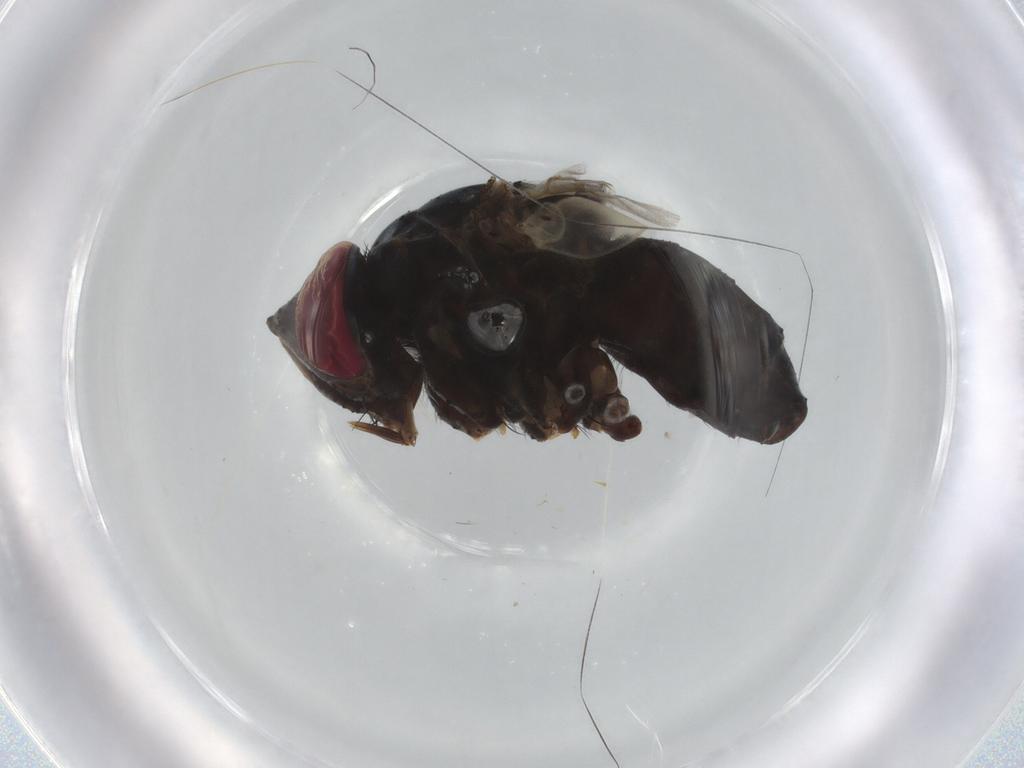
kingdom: Animalia
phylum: Arthropoda
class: Insecta
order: Diptera
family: Tachinidae
